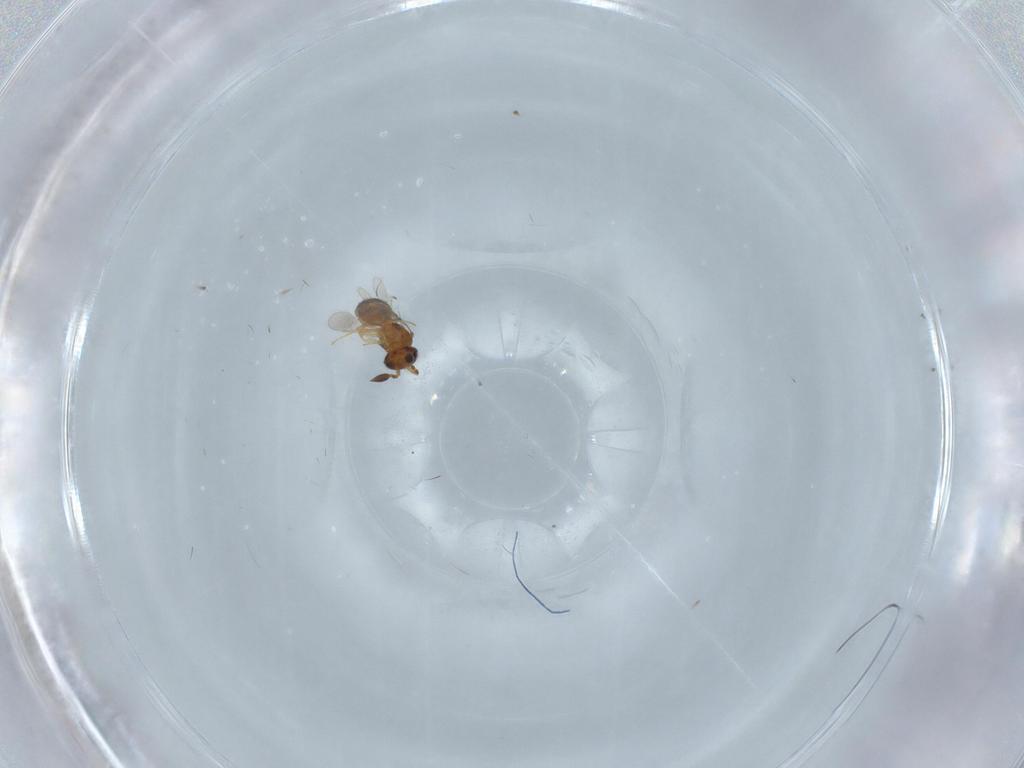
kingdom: Animalia
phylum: Arthropoda
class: Insecta
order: Hymenoptera
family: Scelionidae
